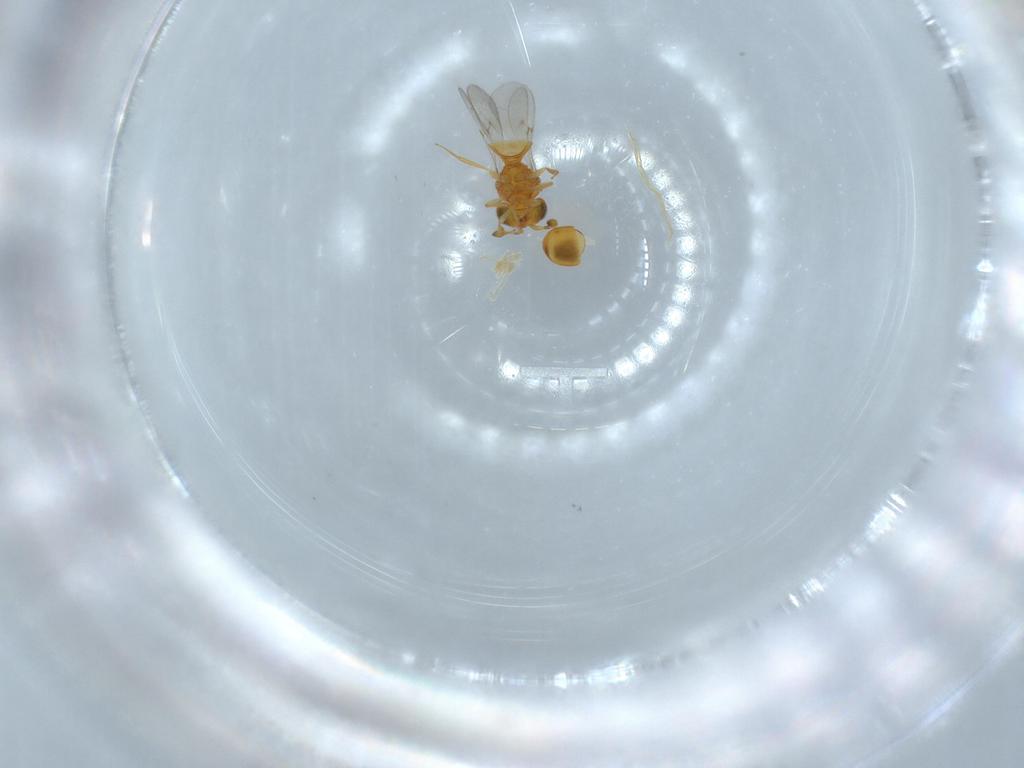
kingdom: Animalia
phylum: Arthropoda
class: Insecta
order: Hymenoptera
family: Scelionidae
